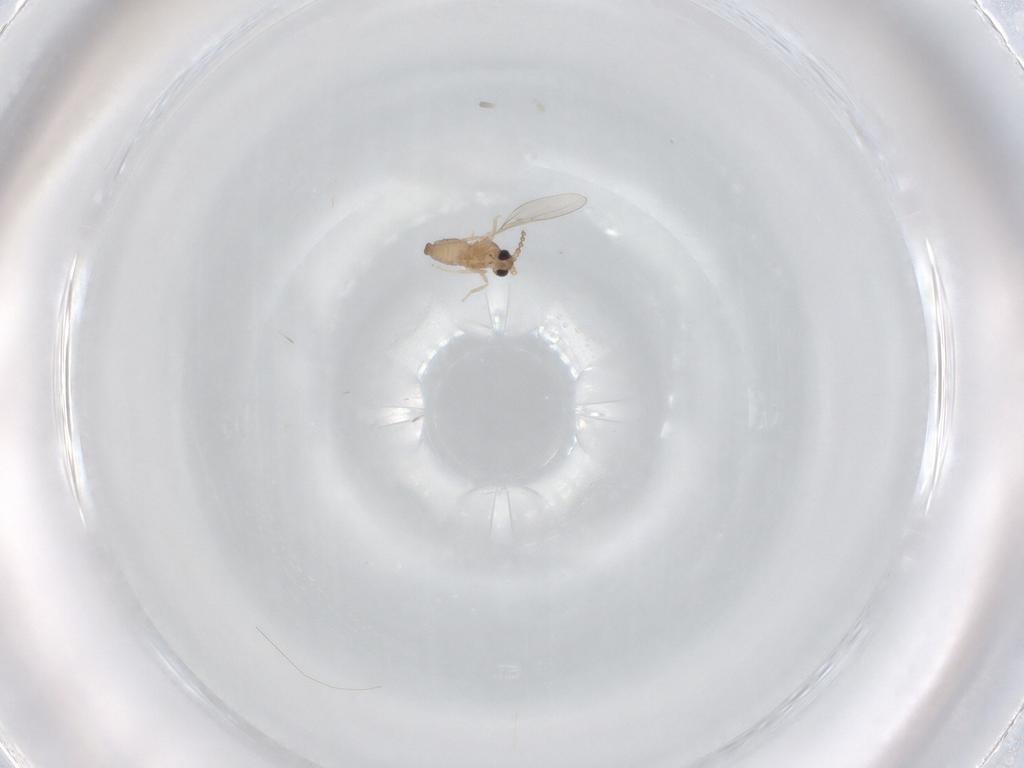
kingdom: Animalia
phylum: Arthropoda
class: Insecta
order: Diptera
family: Cecidomyiidae
